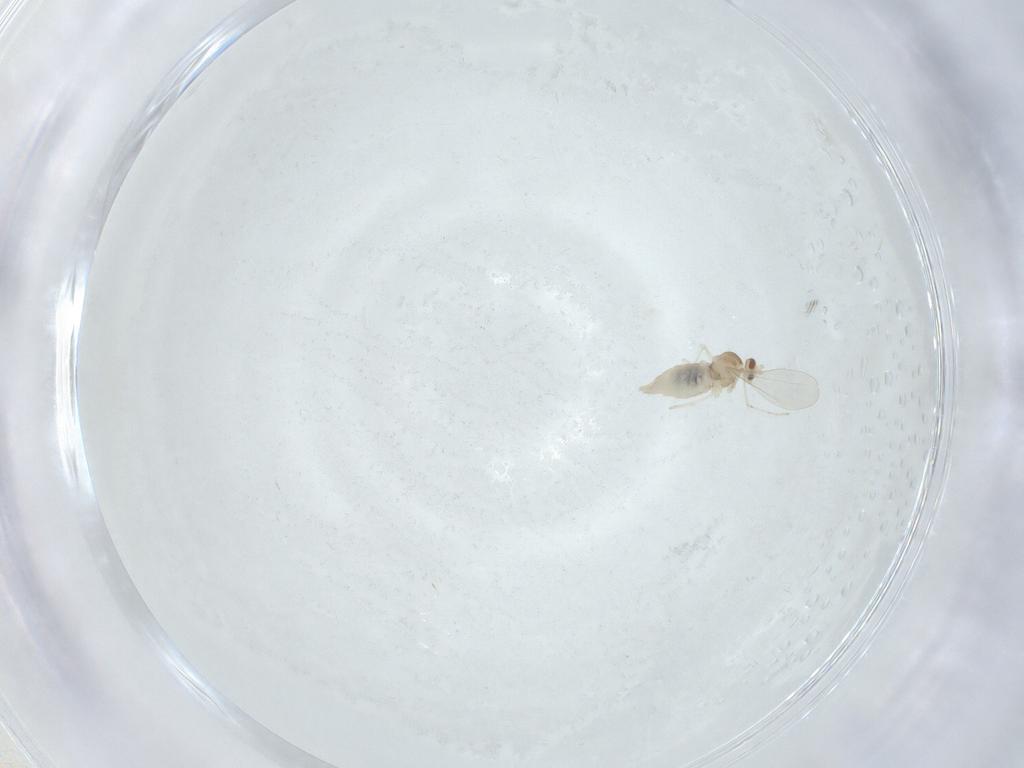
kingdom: Animalia
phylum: Arthropoda
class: Insecta
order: Diptera
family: Cecidomyiidae
